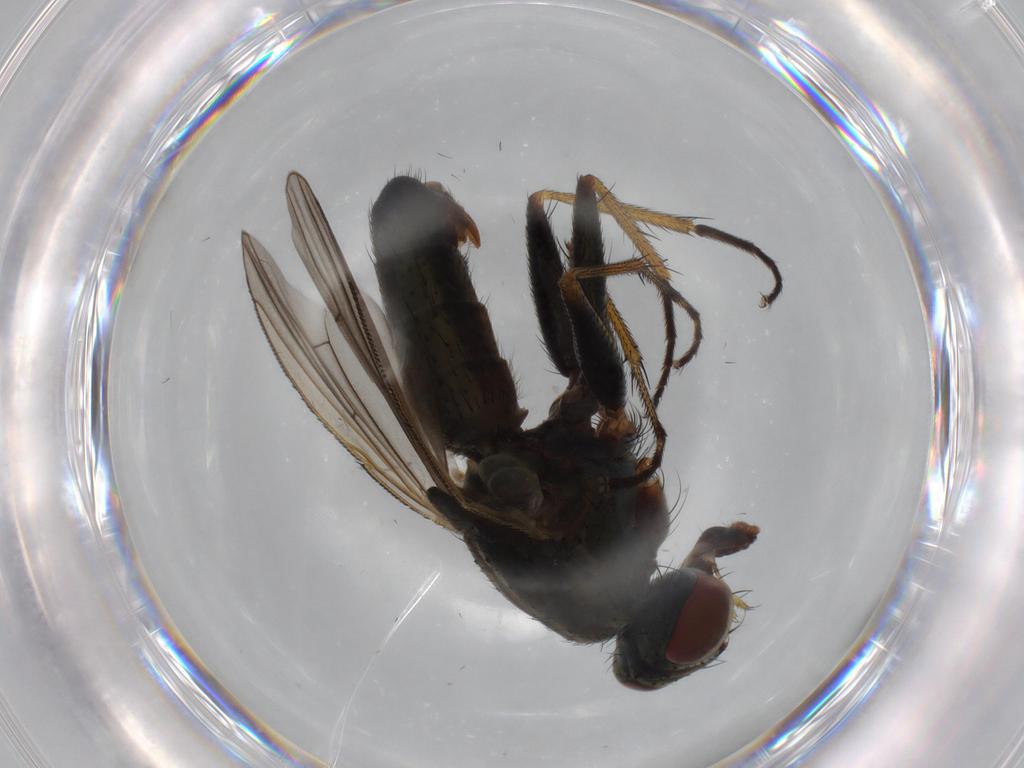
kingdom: Animalia
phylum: Arthropoda
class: Insecta
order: Diptera
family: Muscidae
